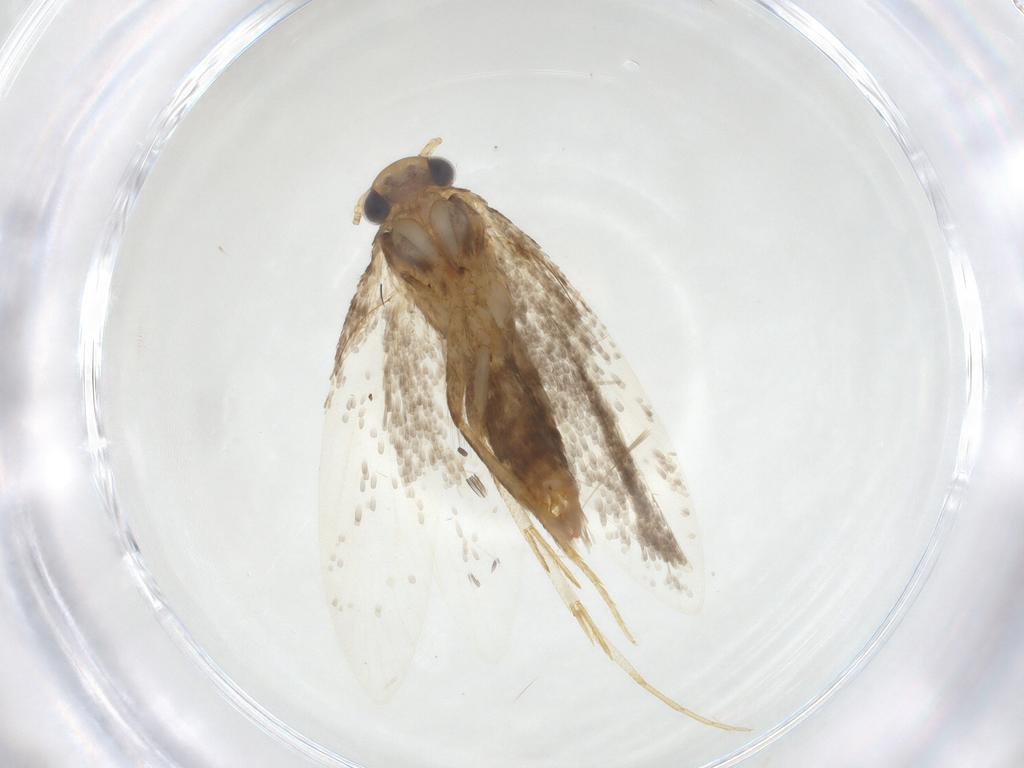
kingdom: Animalia
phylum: Arthropoda
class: Insecta
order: Lepidoptera
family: Tineidae
